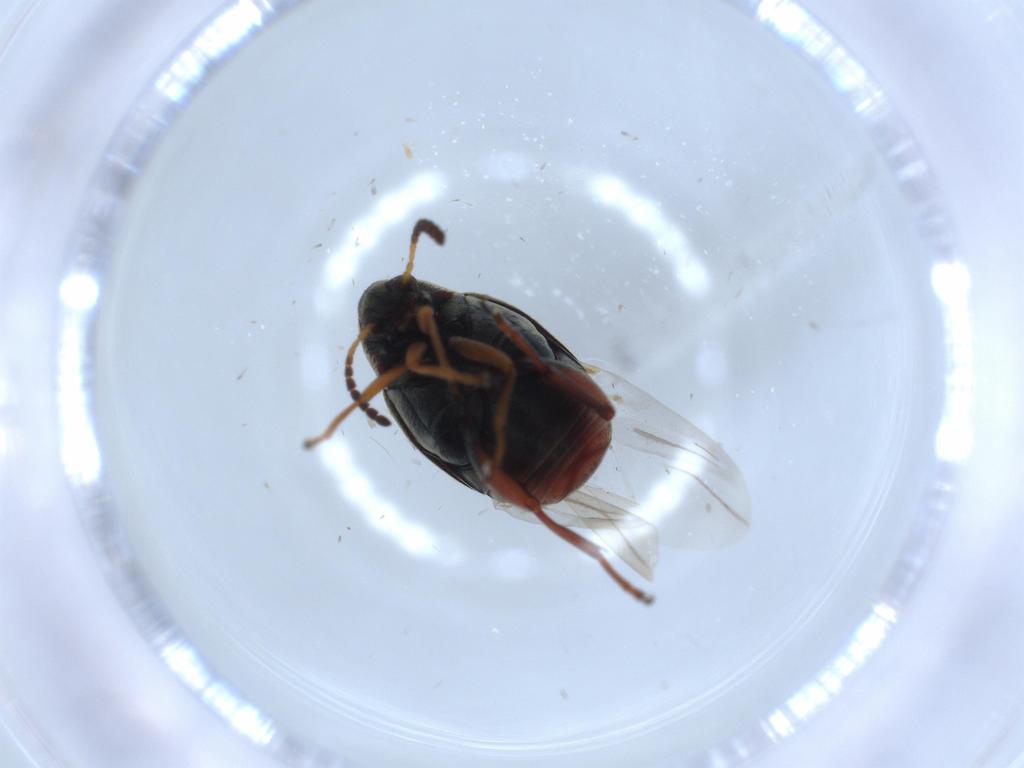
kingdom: Animalia
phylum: Arthropoda
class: Insecta
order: Coleoptera
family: Chrysomelidae
